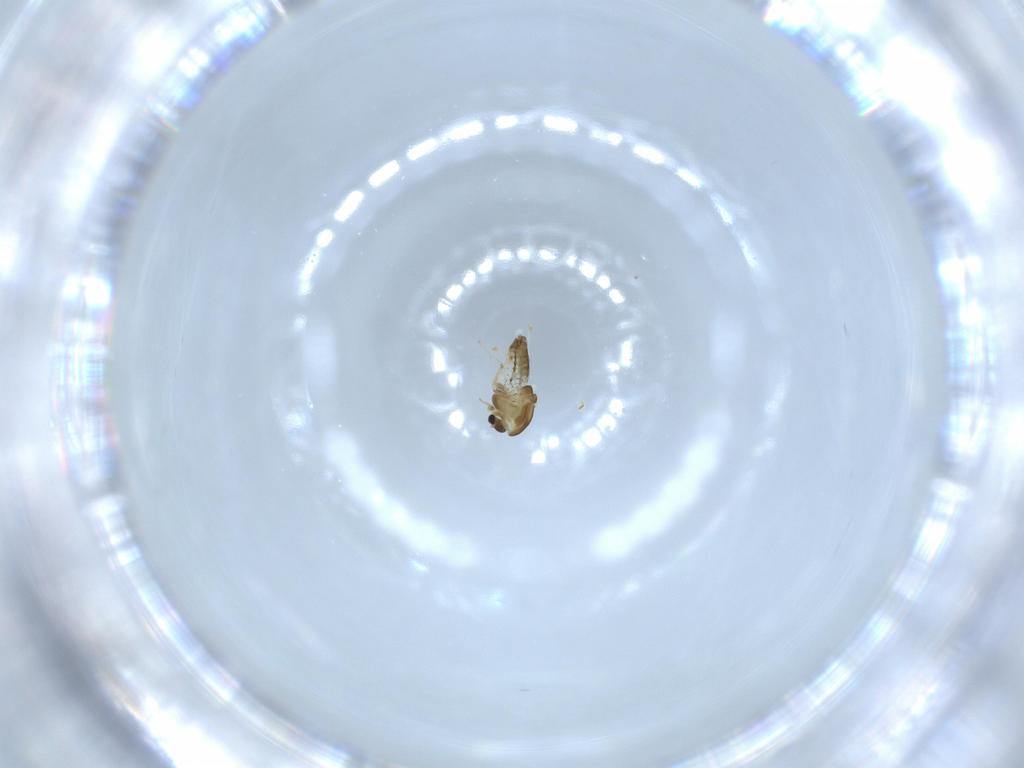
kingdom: Animalia
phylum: Arthropoda
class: Insecta
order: Diptera
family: Chironomidae
